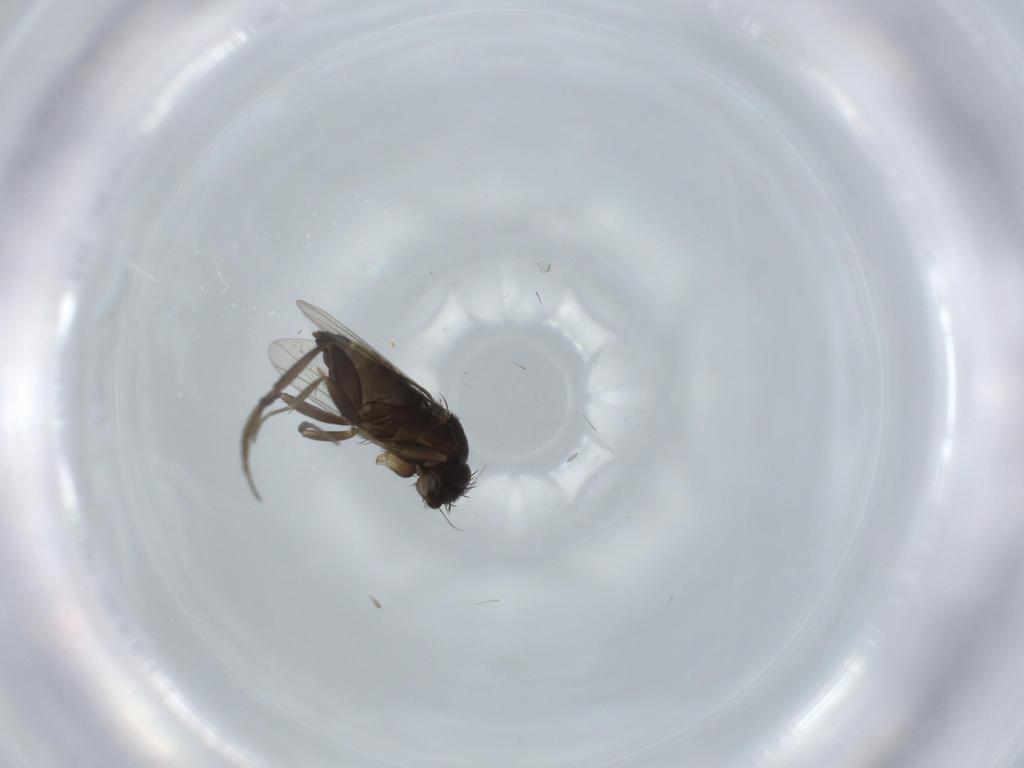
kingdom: Animalia
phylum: Arthropoda
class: Insecta
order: Diptera
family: Phoridae
